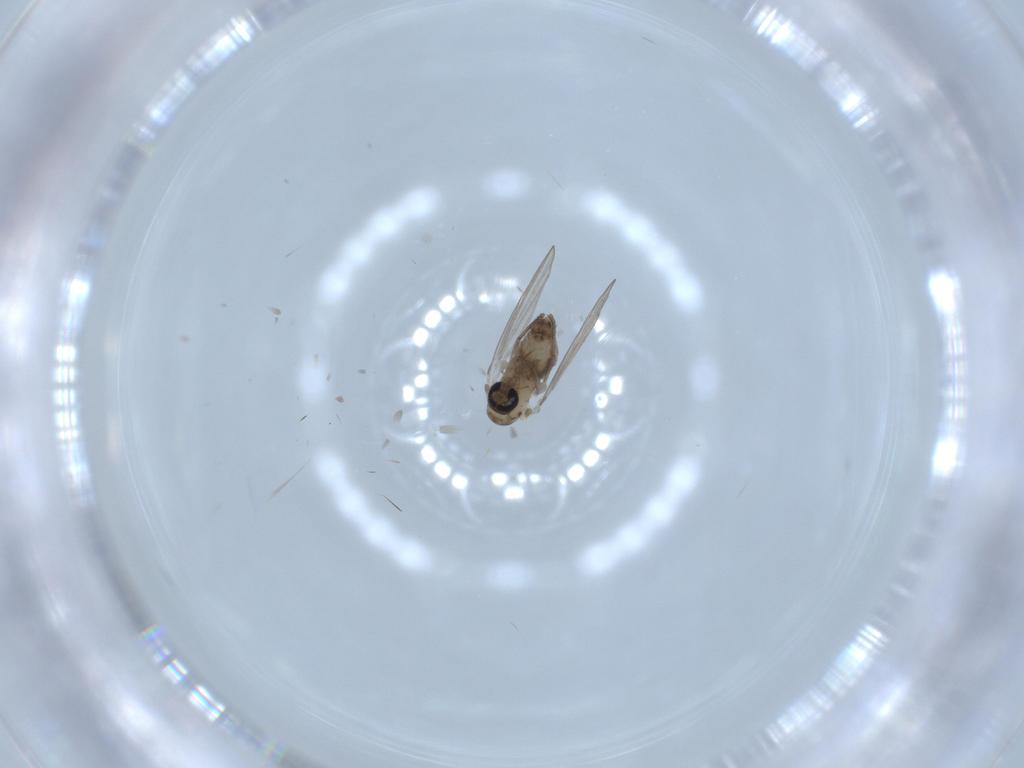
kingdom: Animalia
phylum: Arthropoda
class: Insecta
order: Diptera
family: Psychodidae
